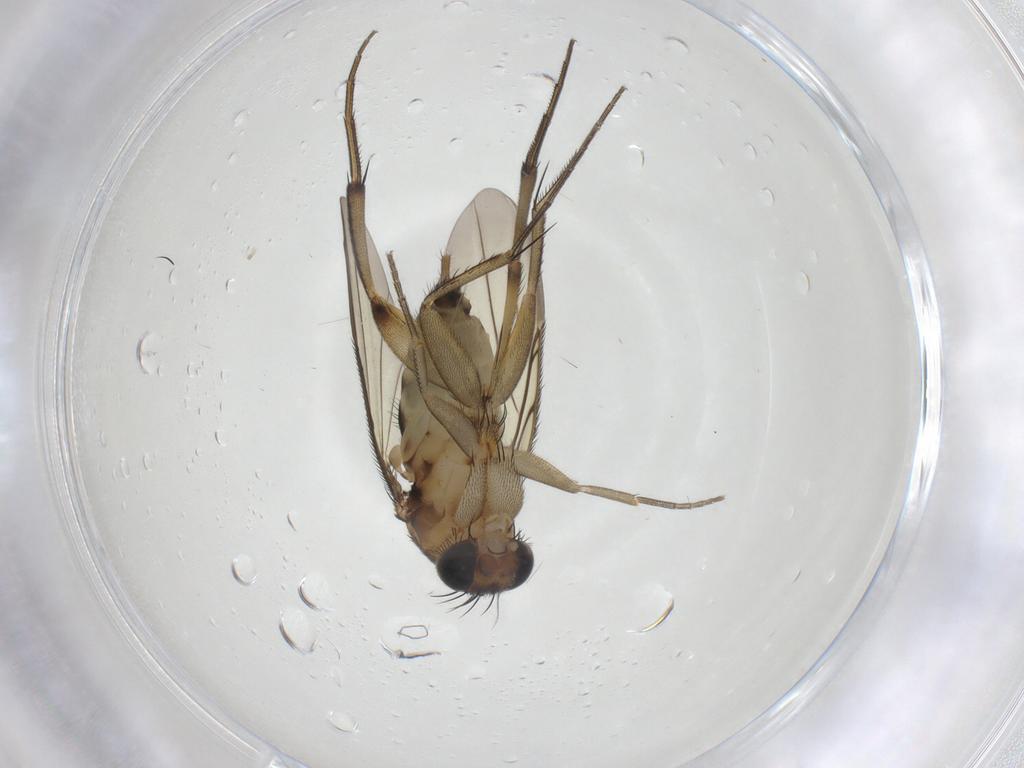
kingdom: Animalia
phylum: Arthropoda
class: Insecta
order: Diptera
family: Phoridae
